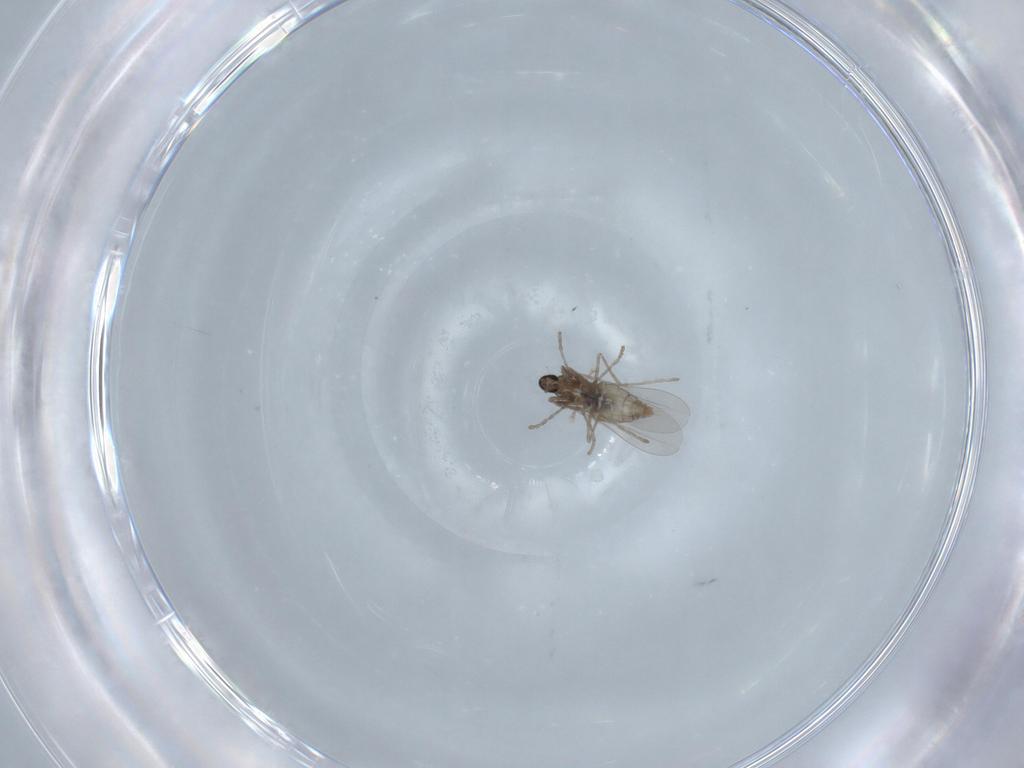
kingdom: Animalia
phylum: Arthropoda
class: Insecta
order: Diptera
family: Cecidomyiidae
